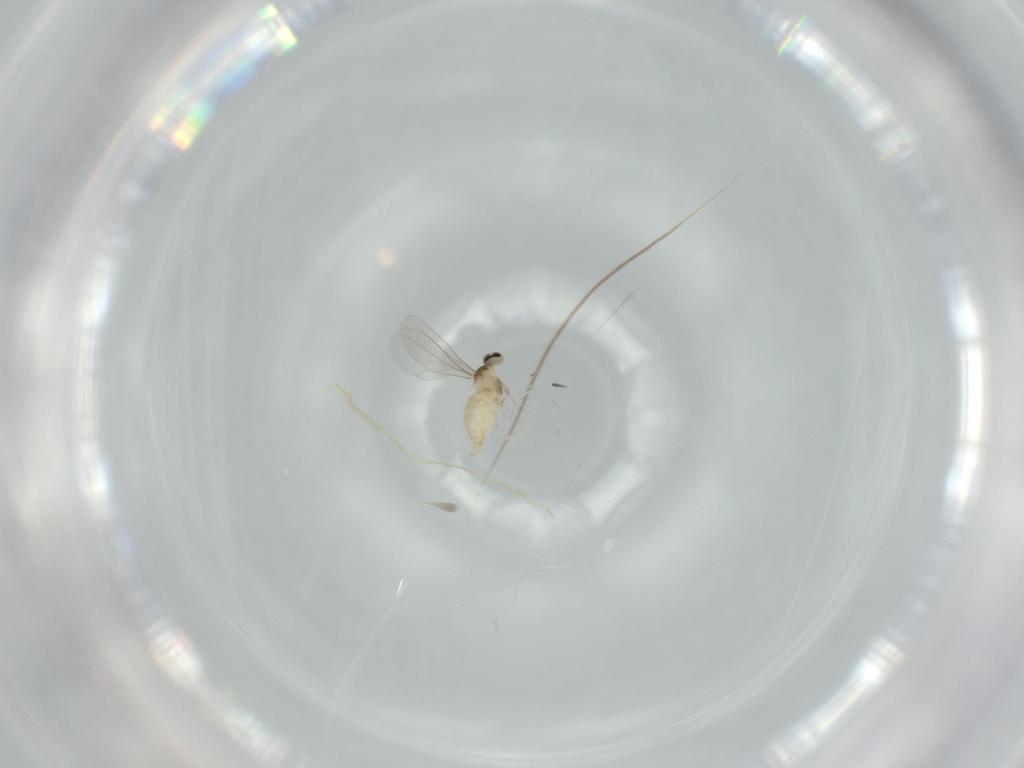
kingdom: Animalia
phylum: Arthropoda
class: Insecta
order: Diptera
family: Cecidomyiidae
